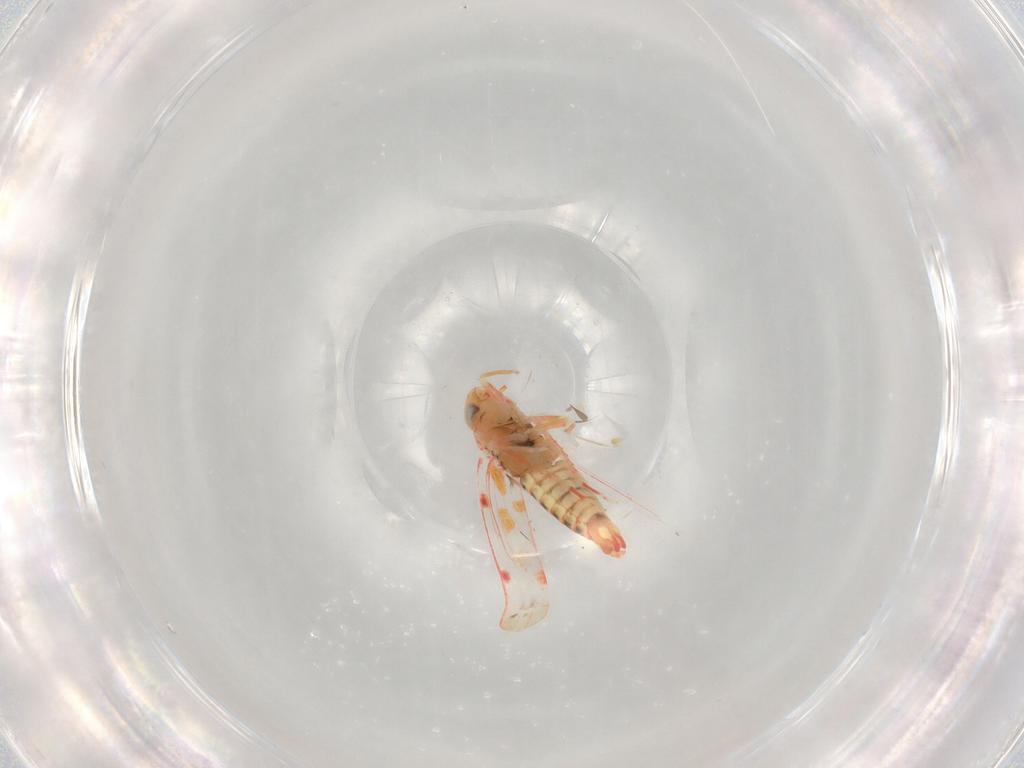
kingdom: Animalia
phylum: Arthropoda
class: Insecta
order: Hemiptera
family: Cicadellidae
